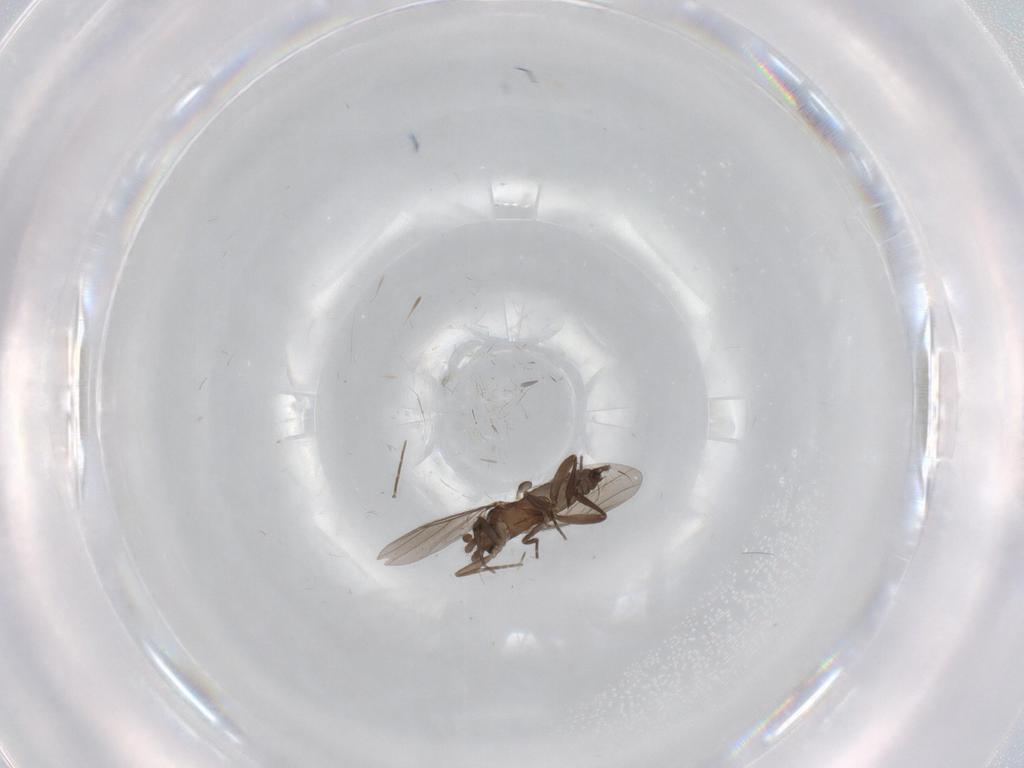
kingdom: Animalia
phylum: Arthropoda
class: Insecta
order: Diptera
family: Phoridae
